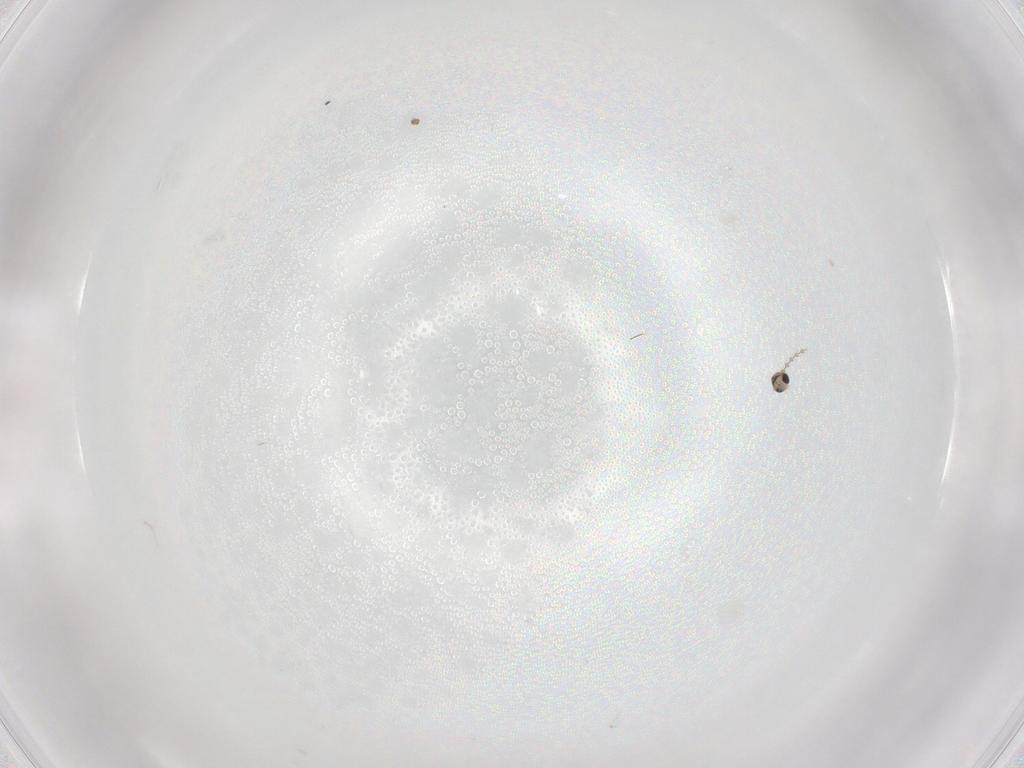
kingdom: Animalia
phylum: Arthropoda
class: Insecta
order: Diptera
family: Cecidomyiidae
